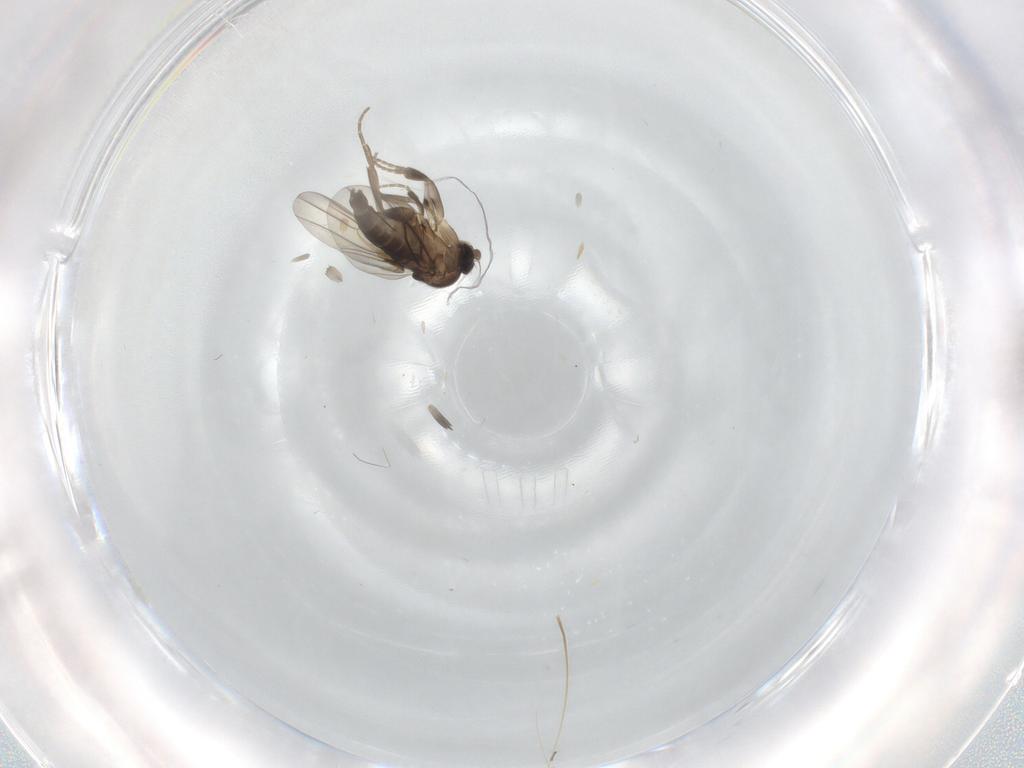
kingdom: Animalia
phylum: Arthropoda
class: Insecta
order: Diptera
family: Phoridae
